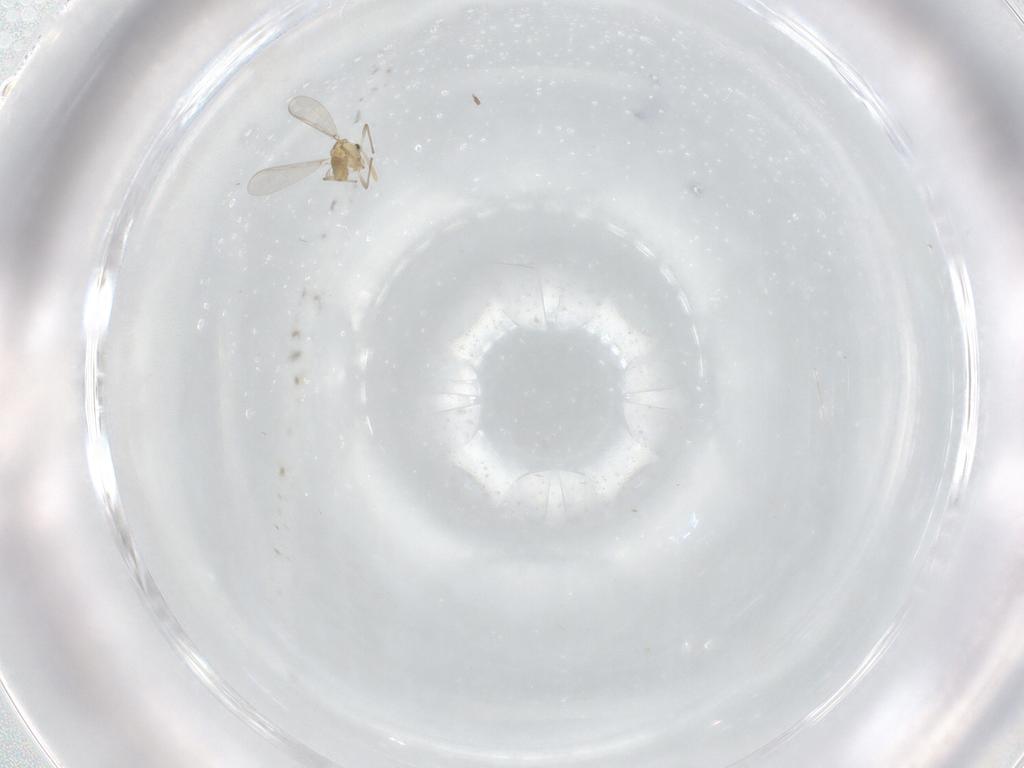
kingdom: Animalia
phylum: Arthropoda
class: Insecta
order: Diptera
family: Chironomidae
